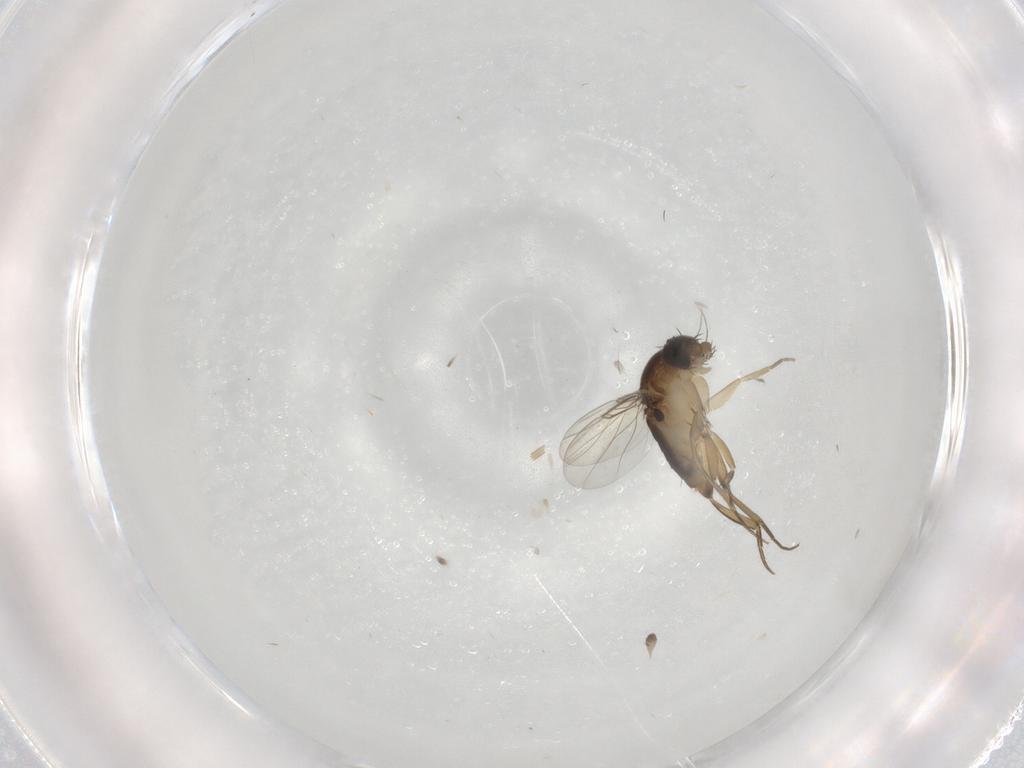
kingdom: Animalia
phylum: Arthropoda
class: Insecta
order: Diptera
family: Phoridae
